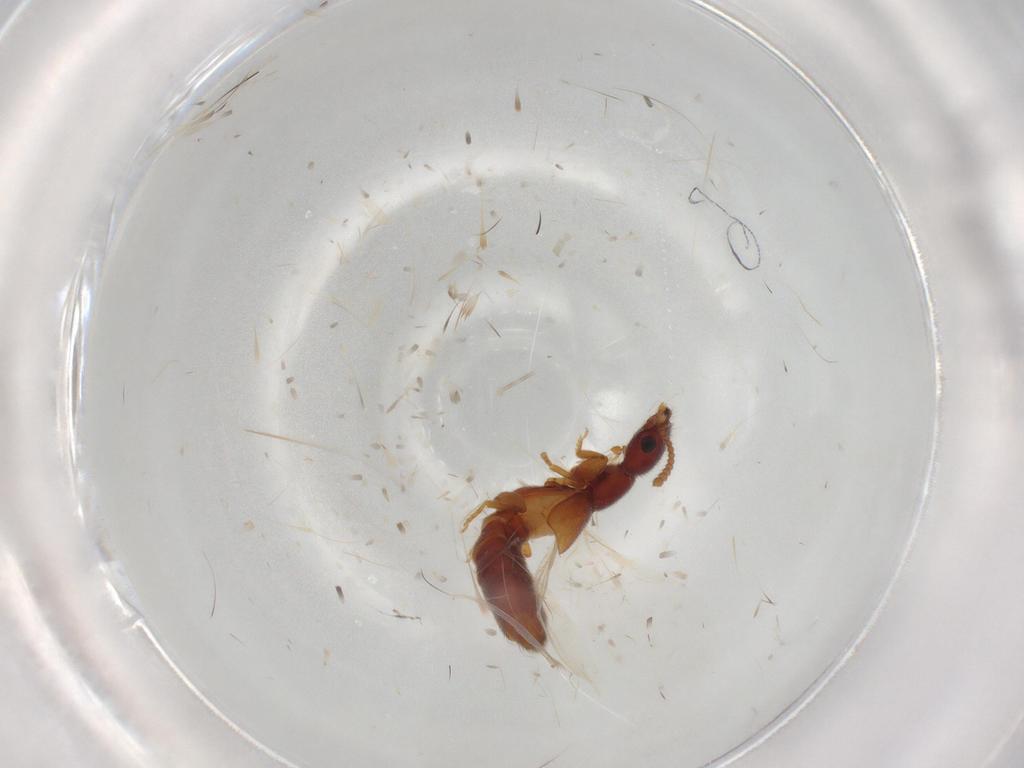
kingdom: Animalia
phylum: Arthropoda
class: Insecta
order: Coleoptera
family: Staphylinidae
